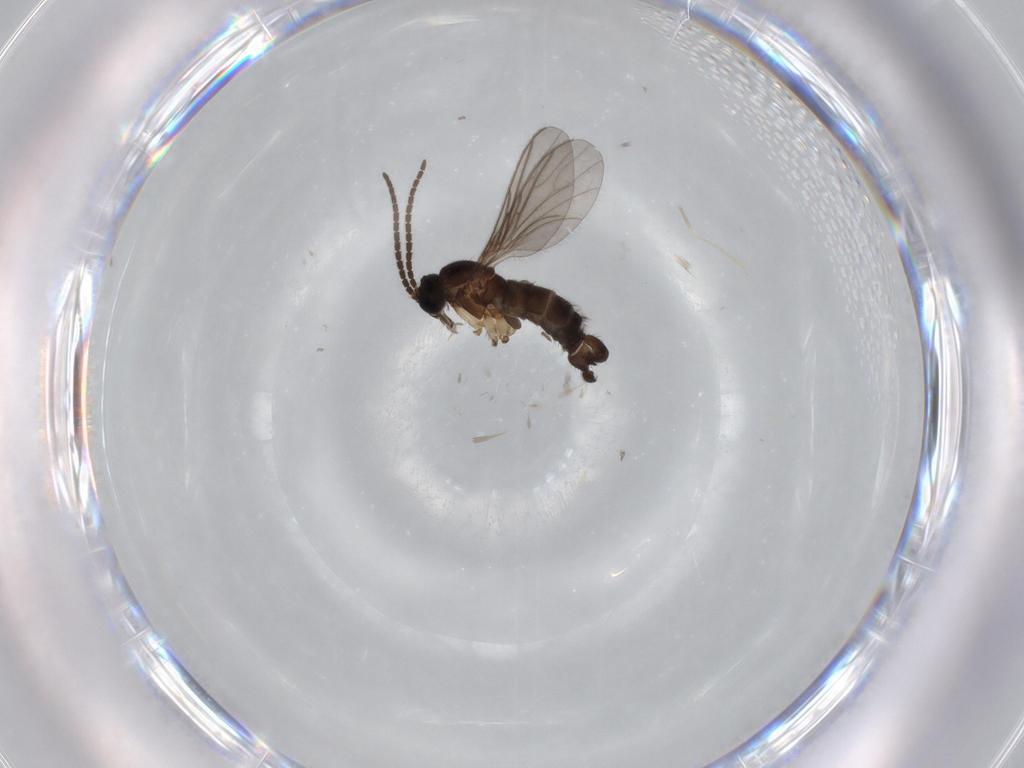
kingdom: Animalia
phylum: Arthropoda
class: Insecta
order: Diptera
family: Sciaridae
